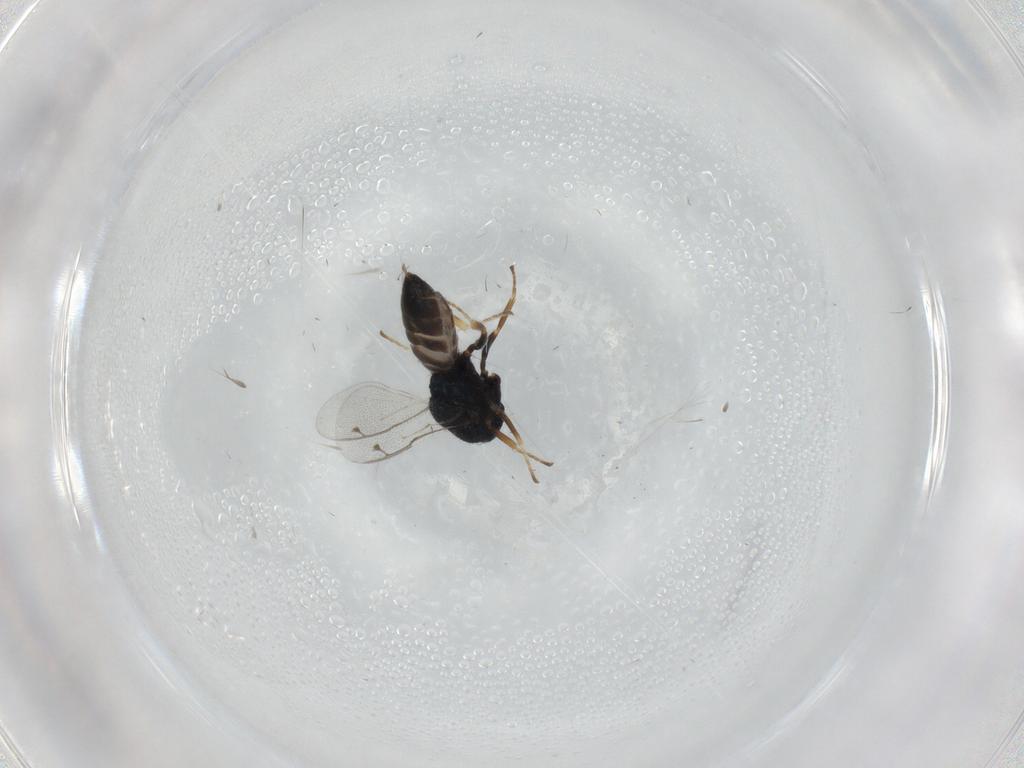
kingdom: Animalia
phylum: Arthropoda
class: Insecta
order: Hymenoptera
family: Pteromalidae
